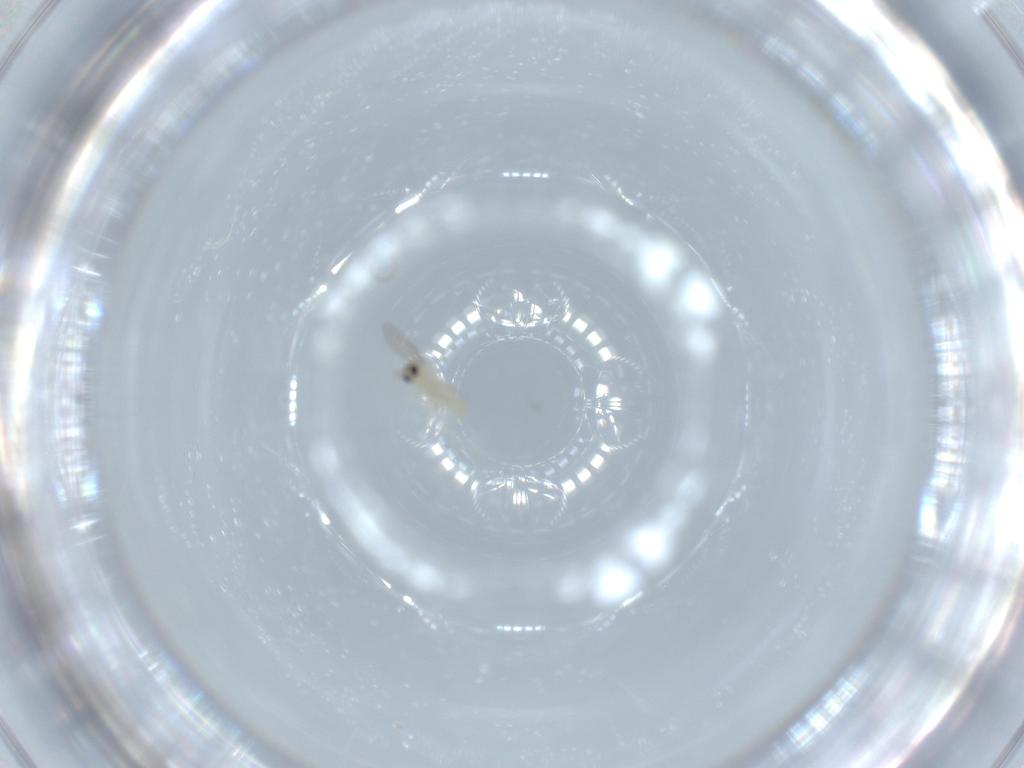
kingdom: Animalia
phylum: Arthropoda
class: Insecta
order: Diptera
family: Cecidomyiidae
